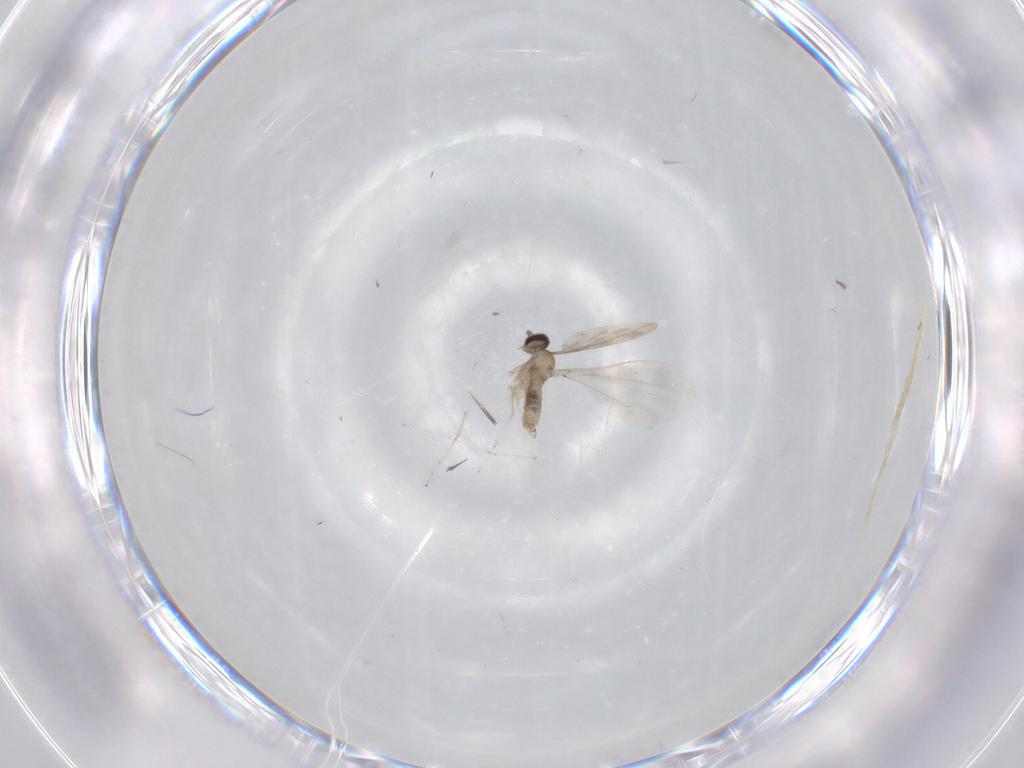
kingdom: Animalia
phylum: Arthropoda
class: Insecta
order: Diptera
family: Cecidomyiidae
